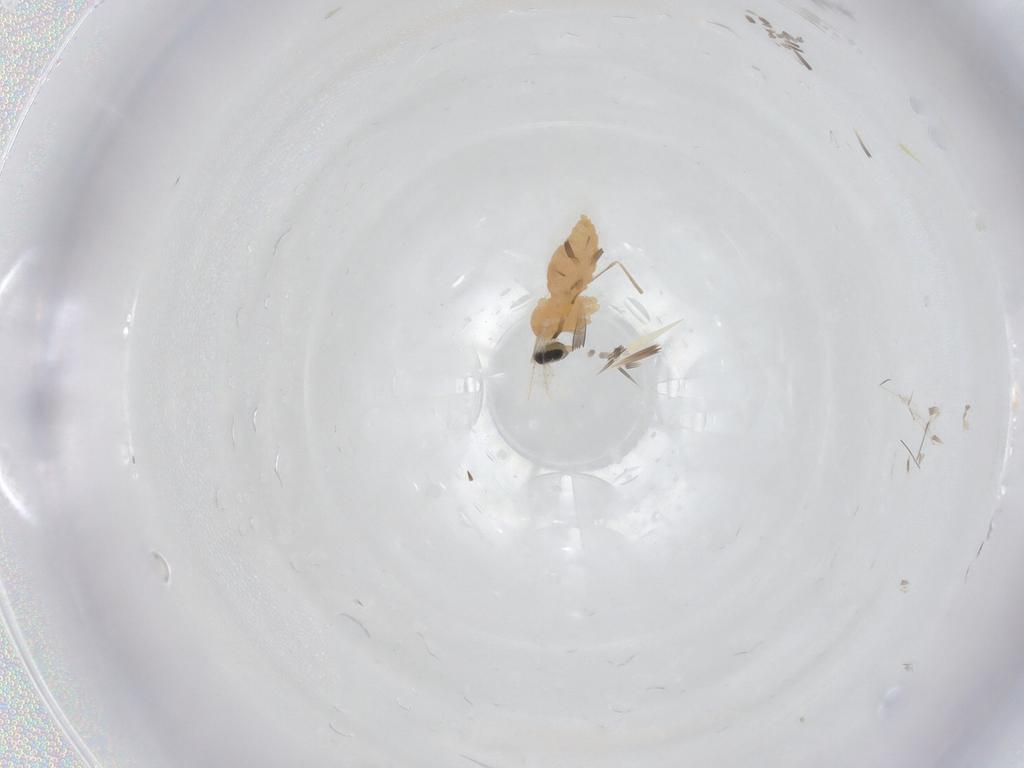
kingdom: Animalia
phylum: Arthropoda
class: Insecta
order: Diptera
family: Cecidomyiidae
